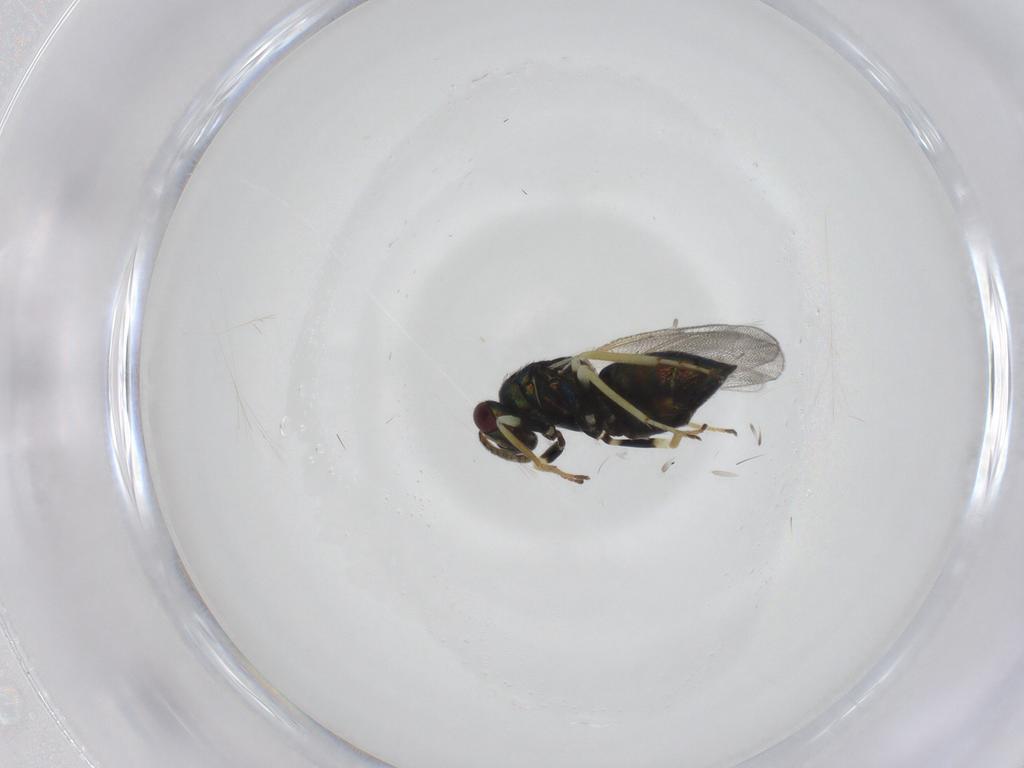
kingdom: Animalia
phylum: Arthropoda
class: Insecta
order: Hymenoptera
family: Eulophidae
